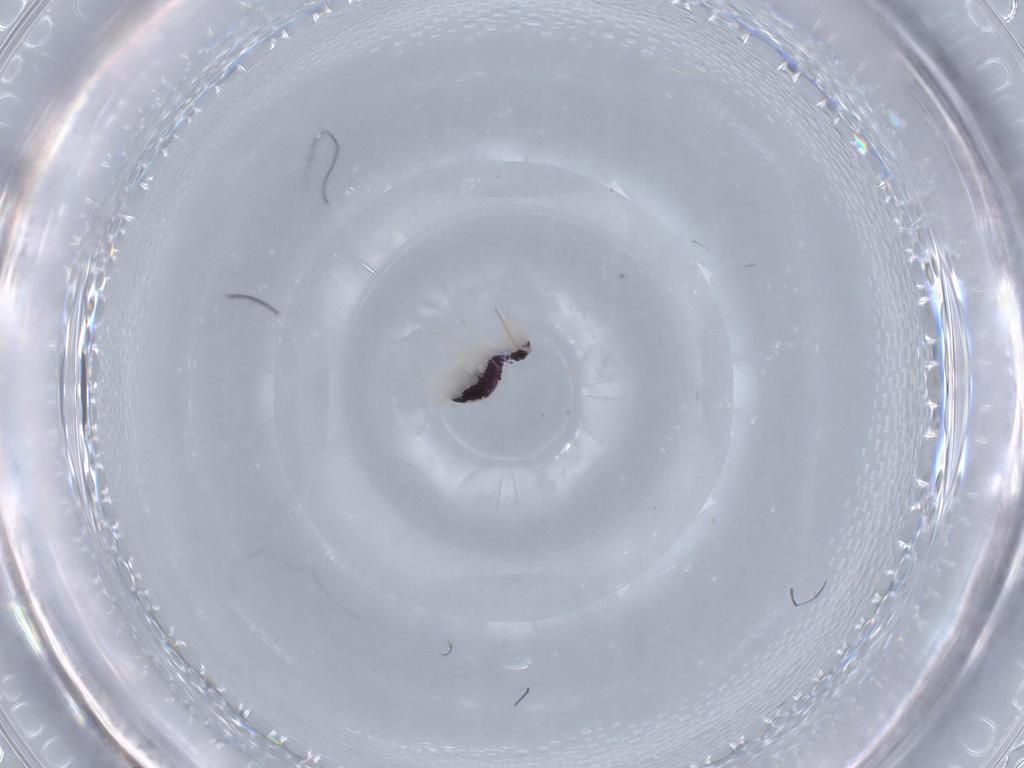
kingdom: Animalia
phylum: Arthropoda
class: Collembola
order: Symphypleona
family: Bourletiellidae
